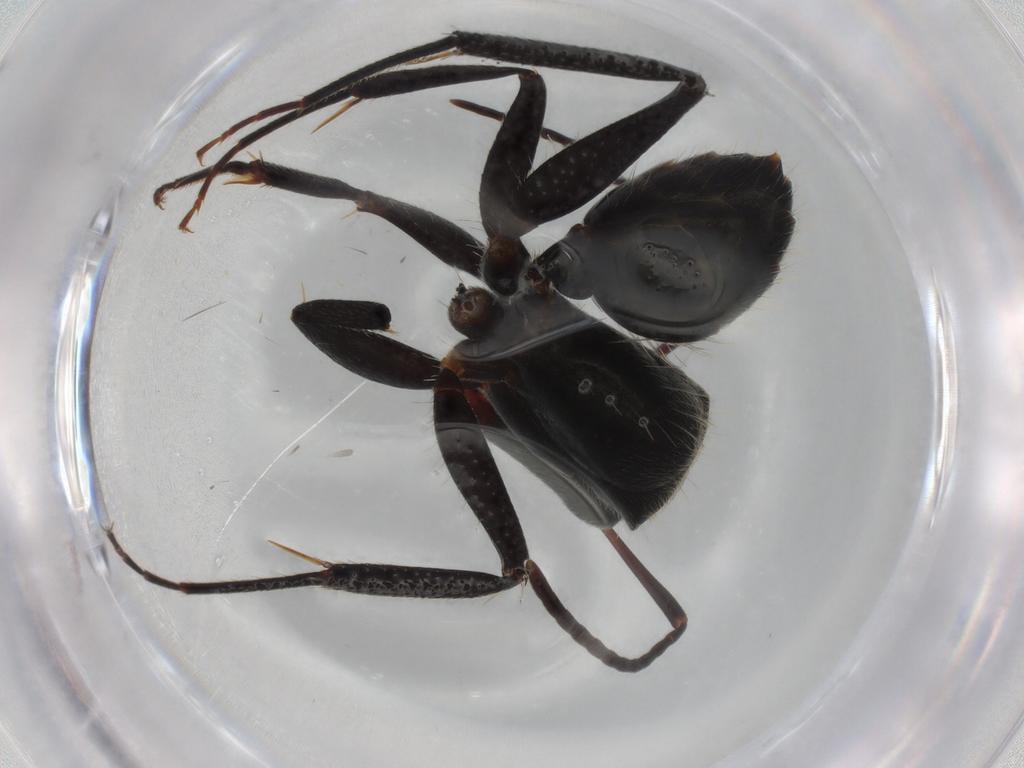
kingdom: Animalia
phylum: Arthropoda
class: Insecta
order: Hymenoptera
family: Formicidae
